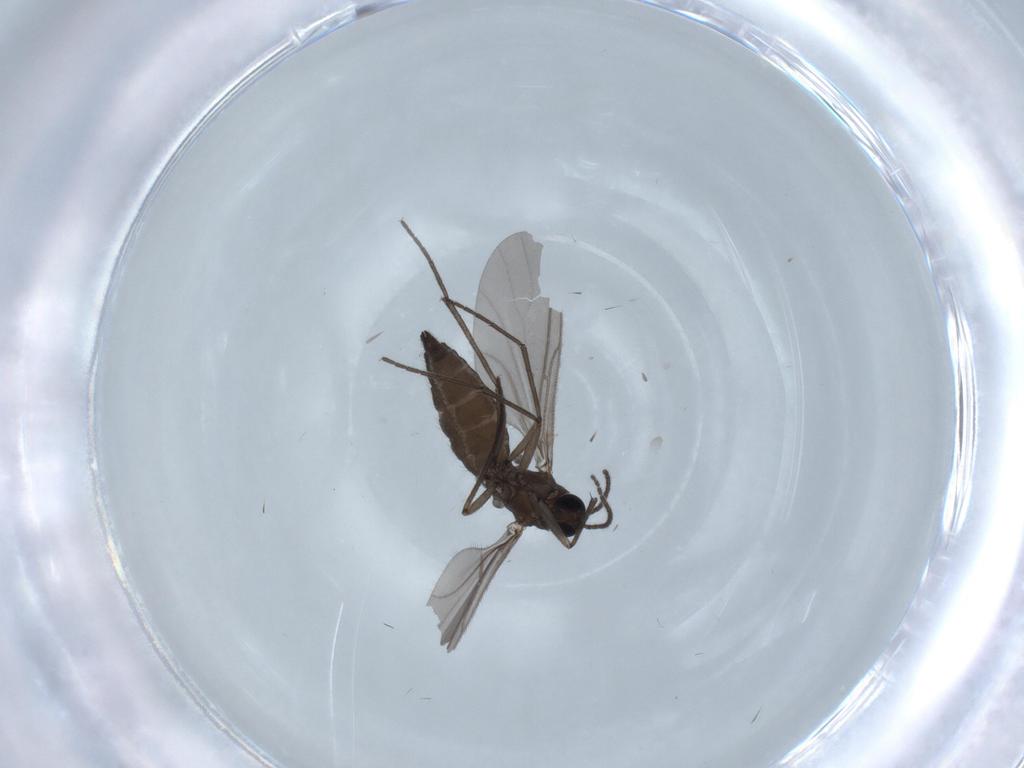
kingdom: Animalia
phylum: Arthropoda
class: Insecta
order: Diptera
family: Sciaridae
